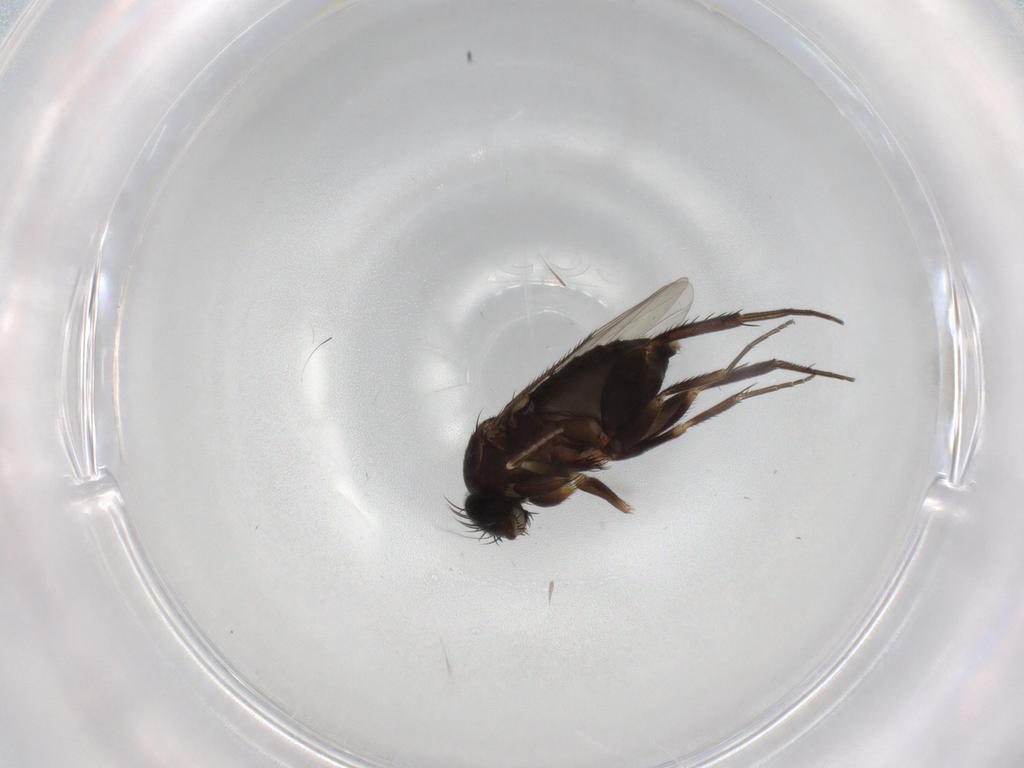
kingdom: Animalia
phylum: Arthropoda
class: Insecta
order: Diptera
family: Phoridae
